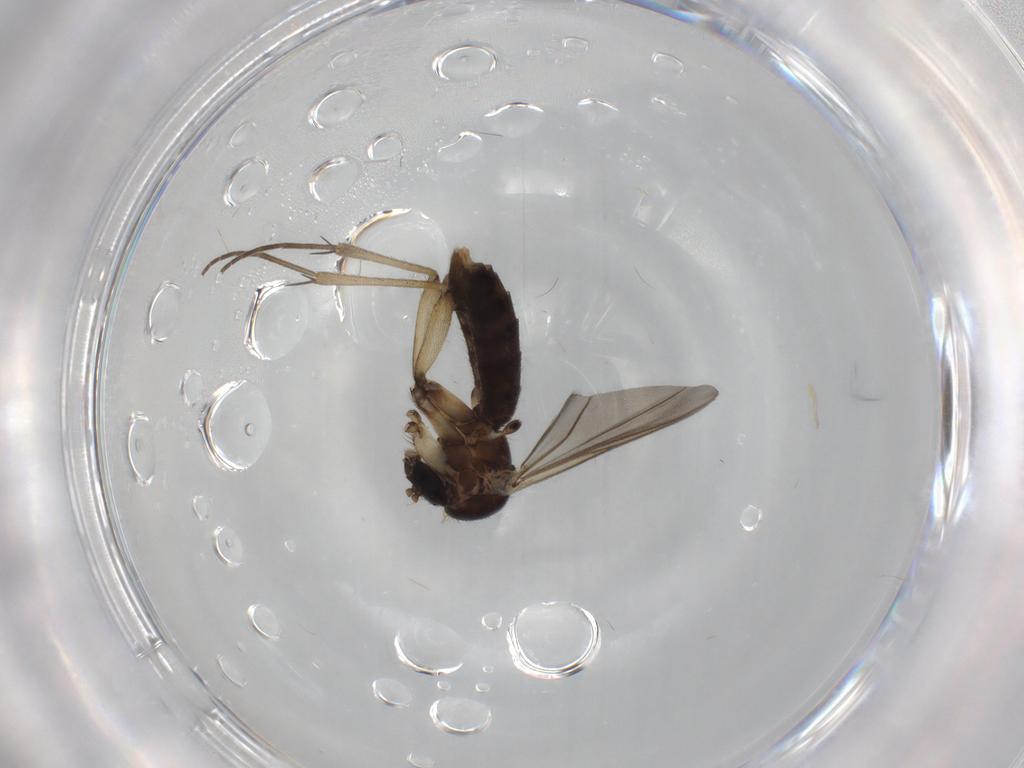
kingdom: Animalia
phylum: Arthropoda
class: Insecta
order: Diptera
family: Mycetophilidae
